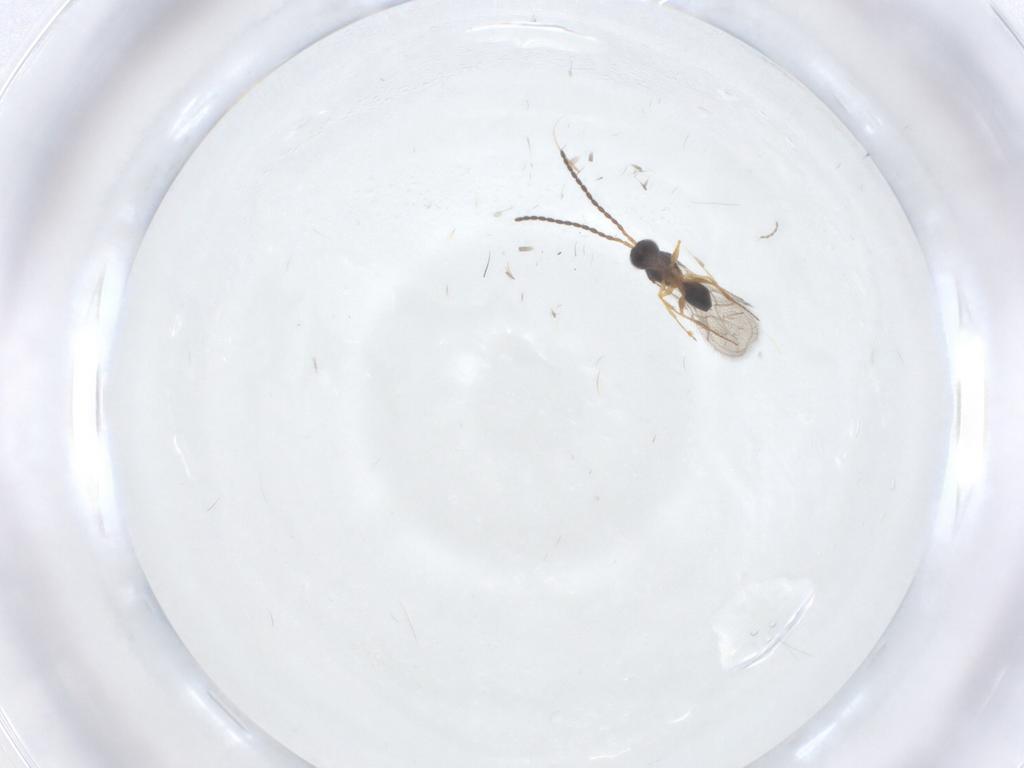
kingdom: Animalia
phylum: Arthropoda
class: Insecta
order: Hymenoptera
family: Figitidae
